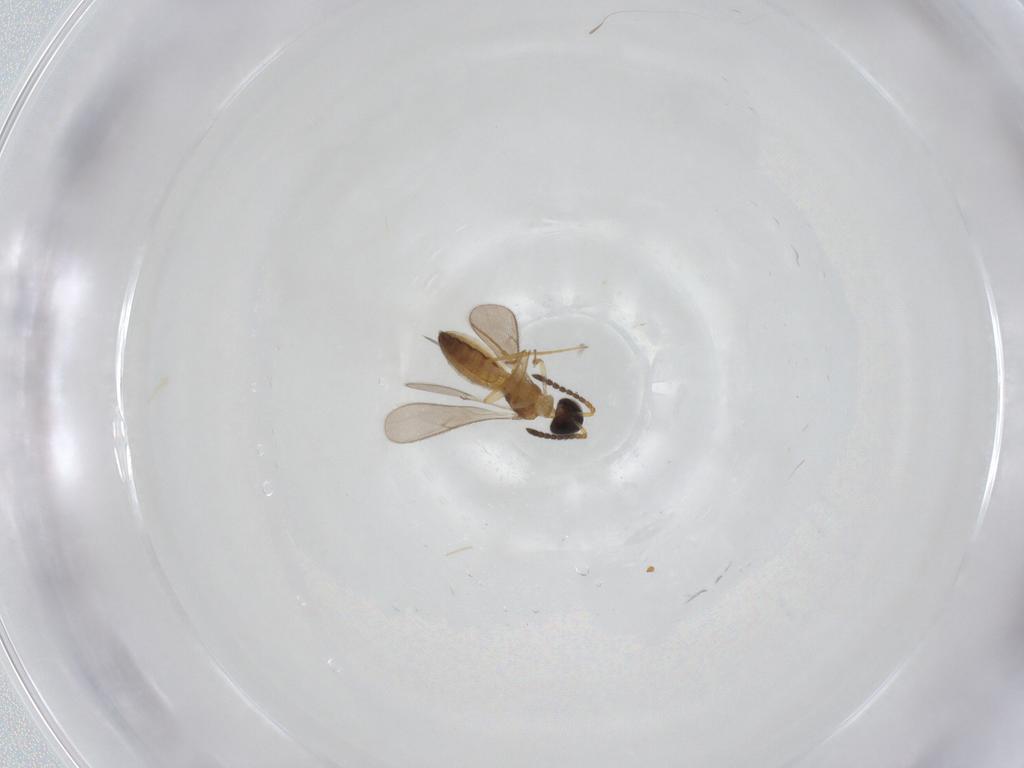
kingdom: Animalia
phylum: Arthropoda
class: Insecta
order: Hymenoptera
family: Scelionidae
